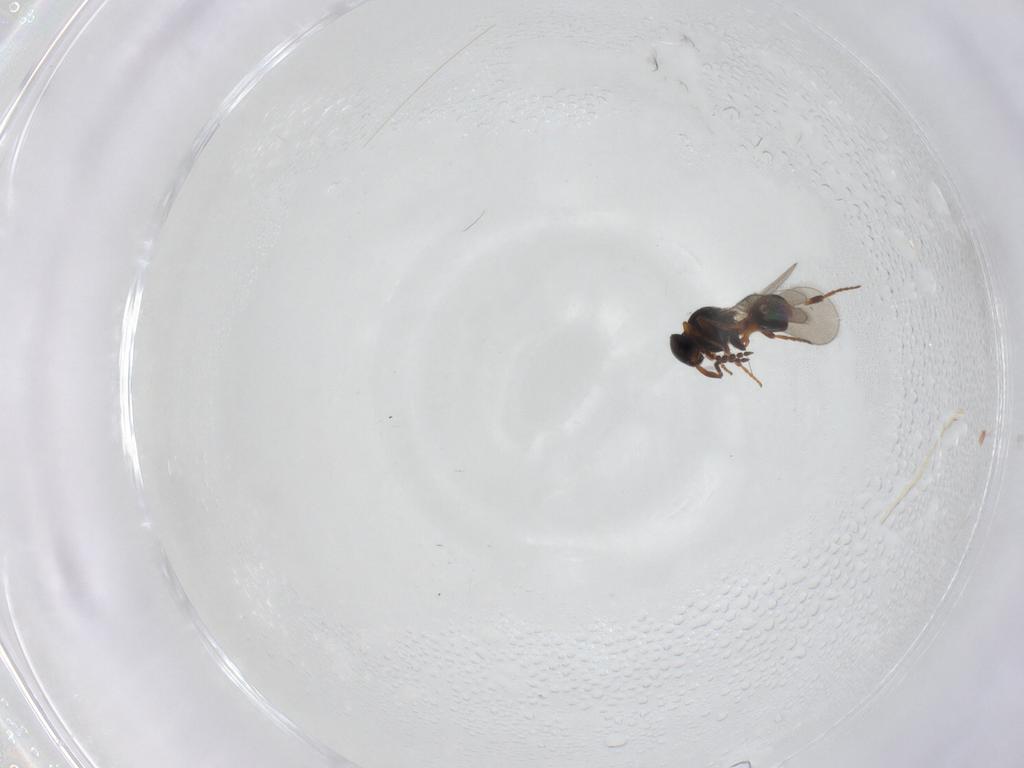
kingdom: Animalia
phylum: Arthropoda
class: Insecta
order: Hymenoptera
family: Platygastridae
